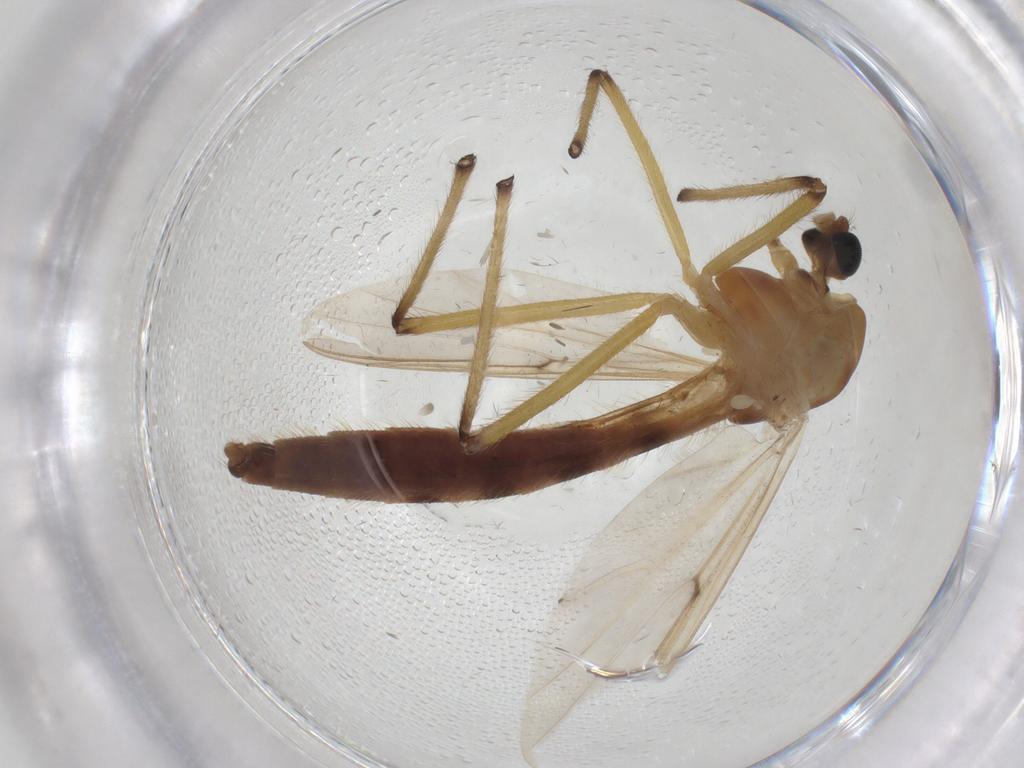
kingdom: Animalia
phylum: Arthropoda
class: Insecta
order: Diptera
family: Chironomidae
